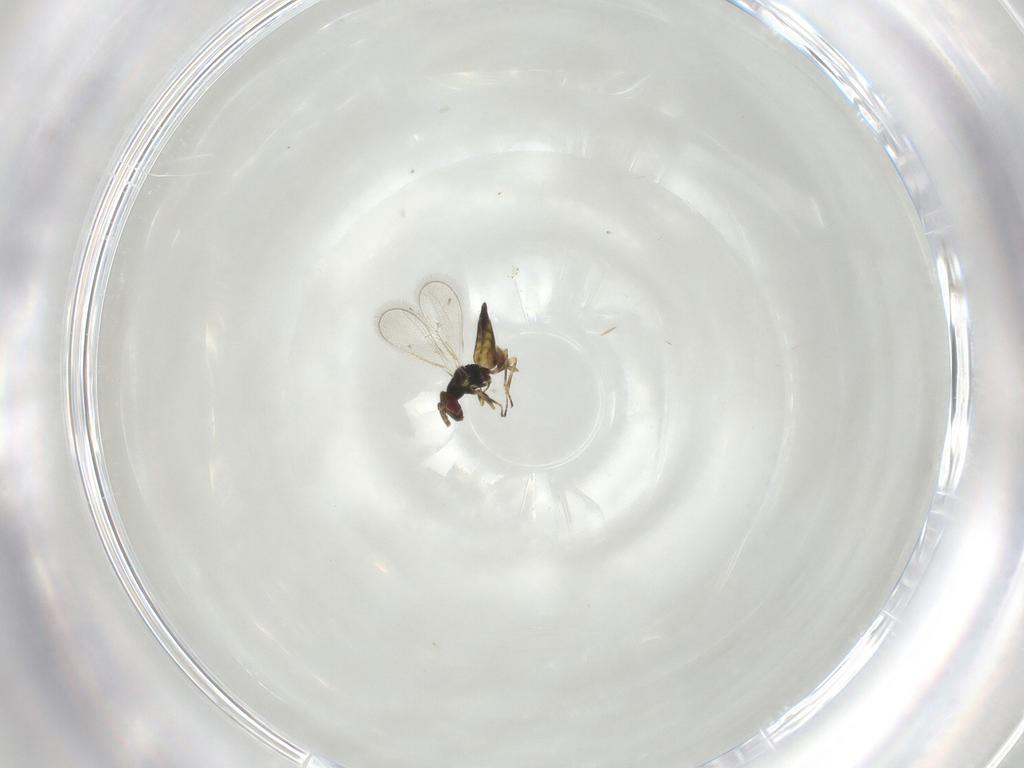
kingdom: Animalia
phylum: Arthropoda
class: Insecta
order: Hymenoptera
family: Eulophidae
